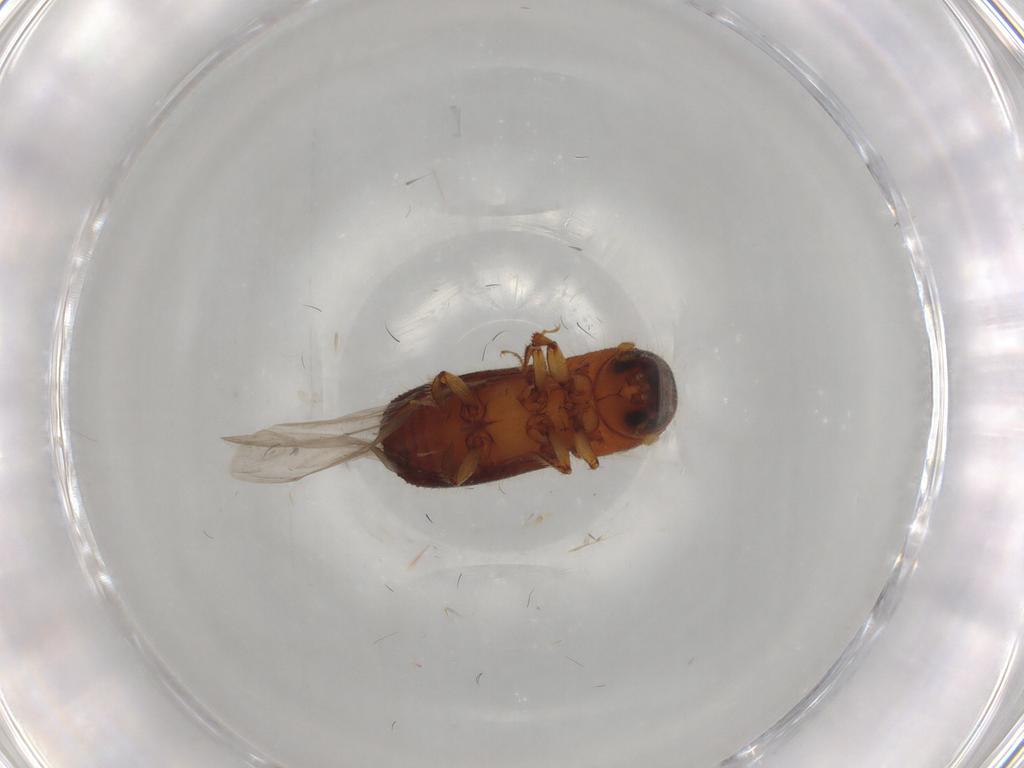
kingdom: Animalia
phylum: Arthropoda
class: Insecta
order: Coleoptera
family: Curculionidae
